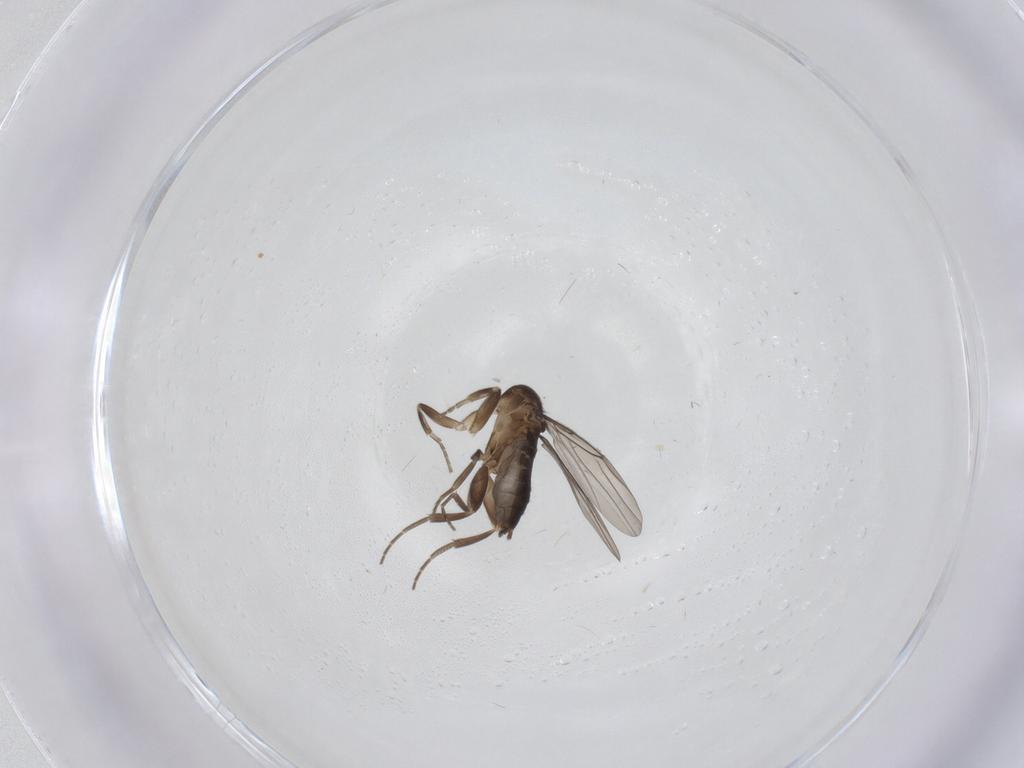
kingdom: Animalia
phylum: Arthropoda
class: Insecta
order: Diptera
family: Phoridae
